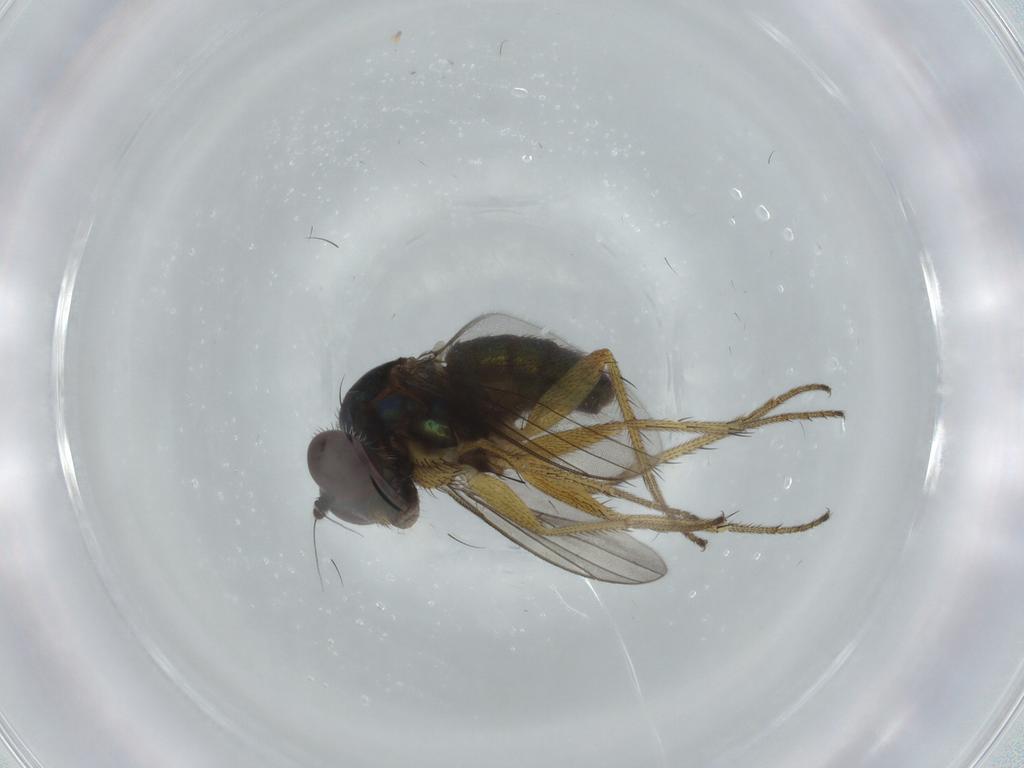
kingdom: Animalia
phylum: Arthropoda
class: Insecta
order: Diptera
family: Dolichopodidae
